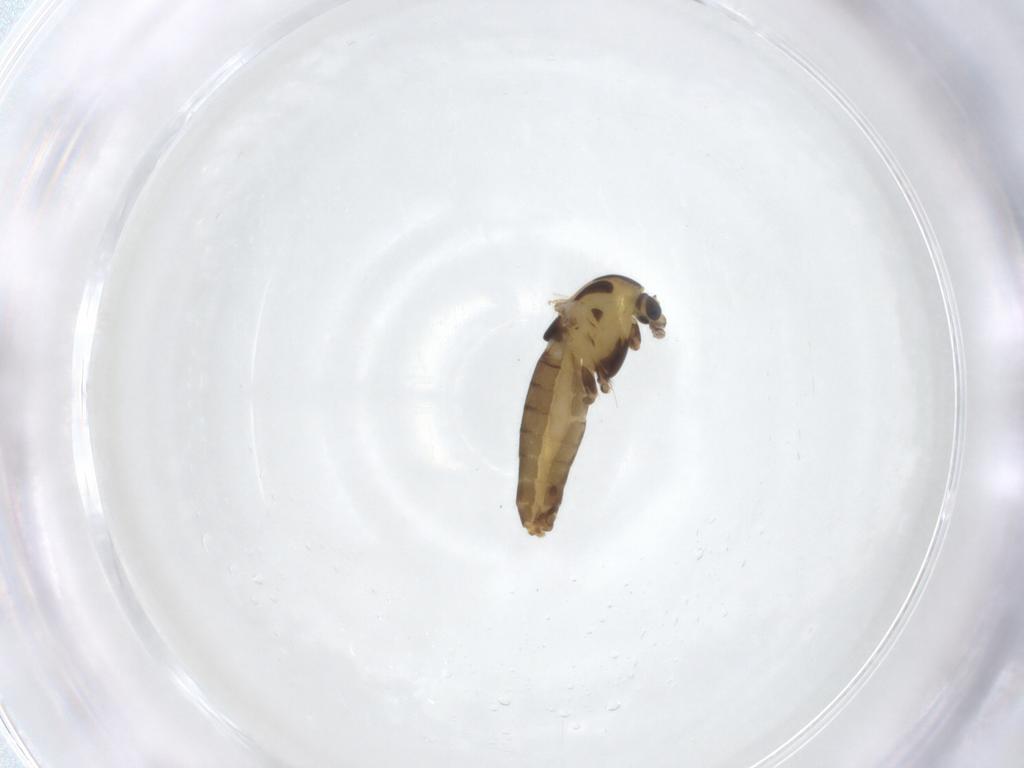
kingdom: Animalia
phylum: Arthropoda
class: Insecta
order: Diptera
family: Chironomidae
